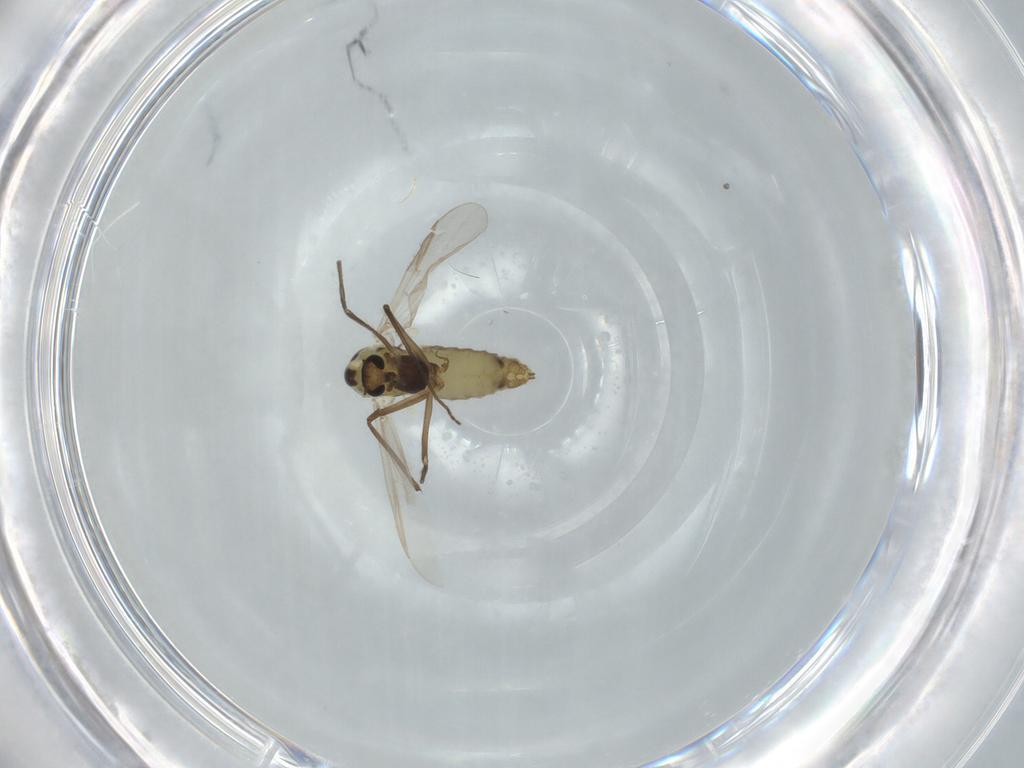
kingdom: Animalia
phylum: Arthropoda
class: Insecta
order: Diptera
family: Chironomidae
